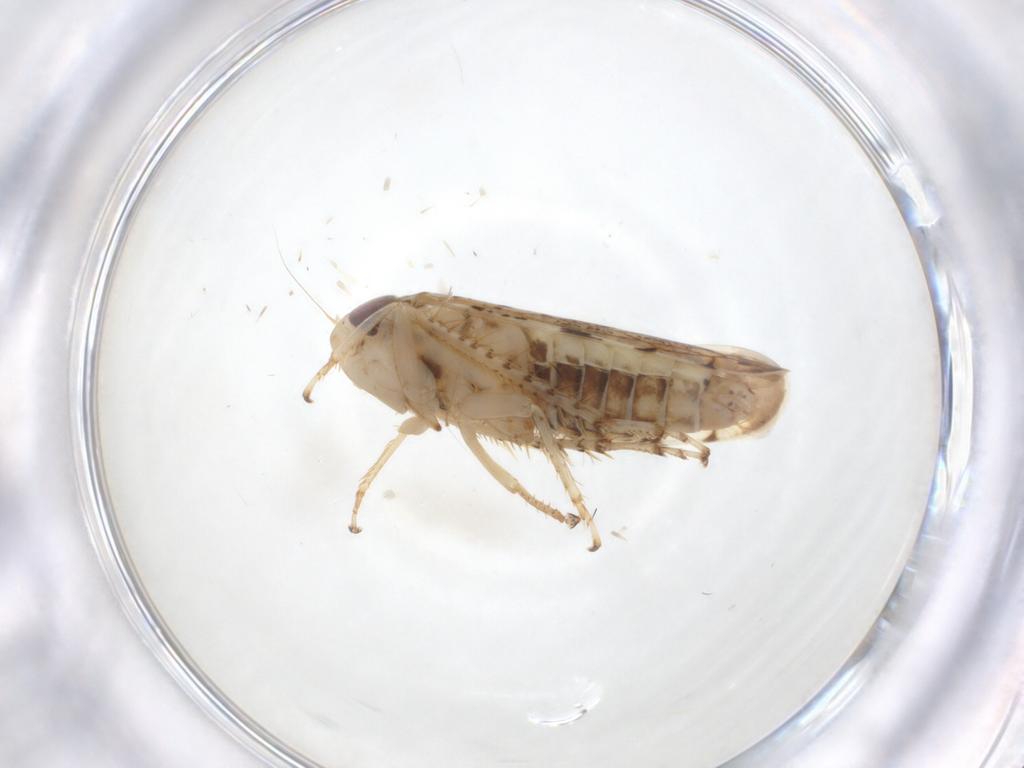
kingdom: Animalia
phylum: Arthropoda
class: Insecta
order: Hemiptera
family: Cicadellidae
